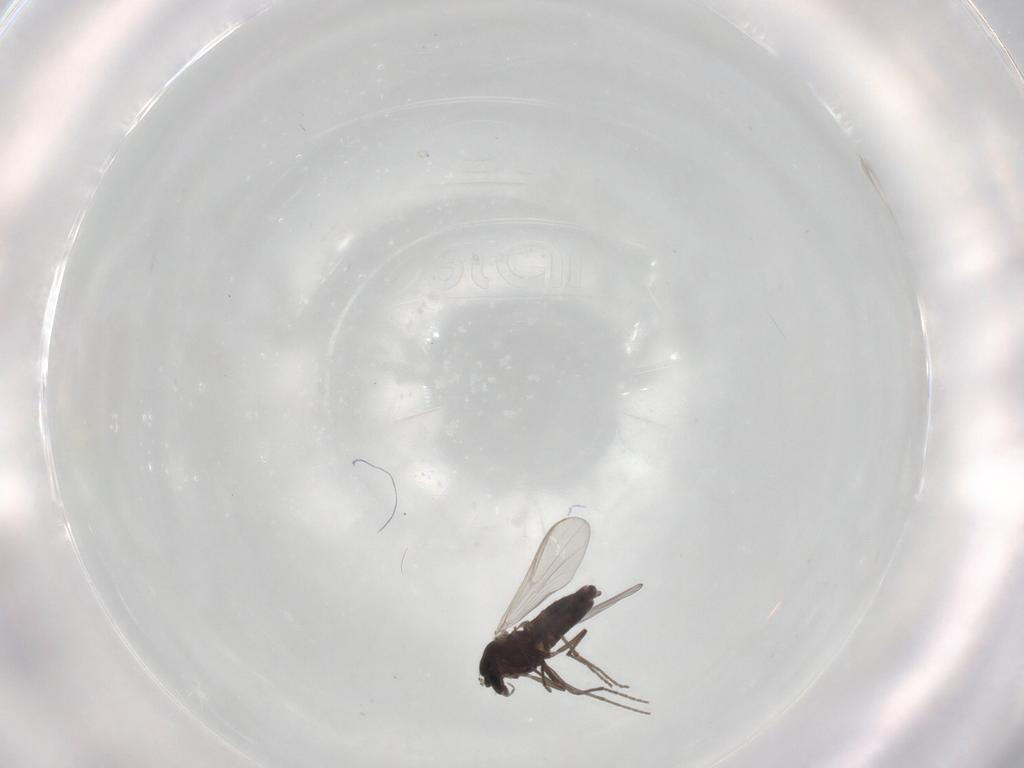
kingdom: Animalia
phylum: Arthropoda
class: Insecta
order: Diptera
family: Chironomidae
